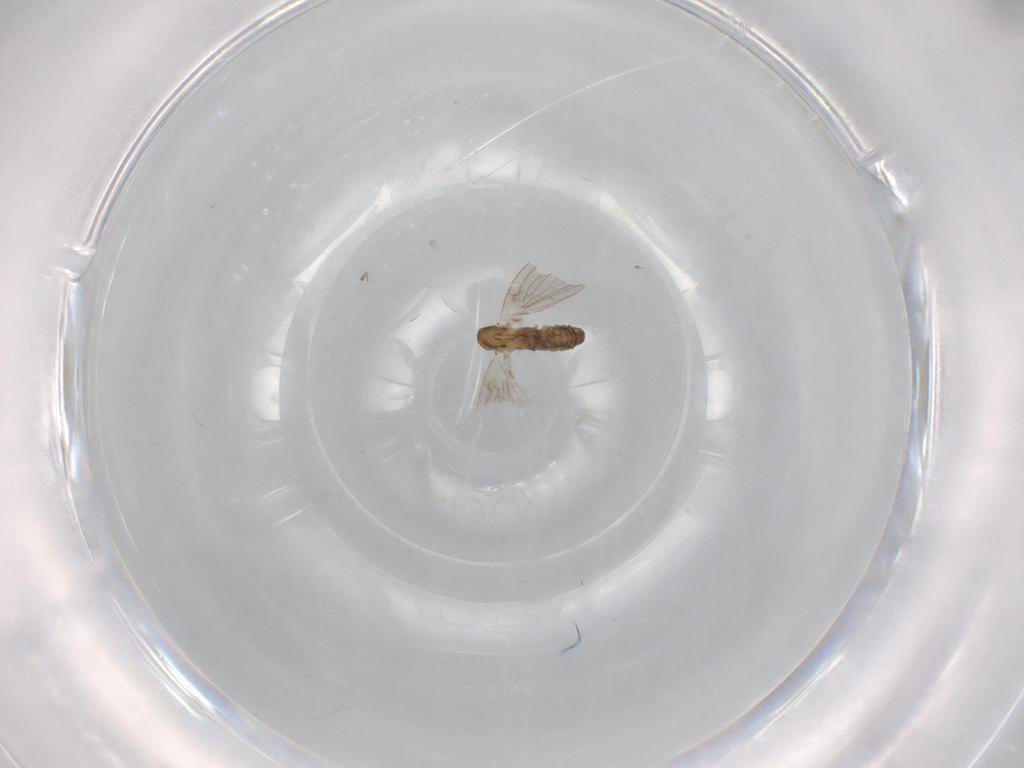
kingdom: Animalia
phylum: Arthropoda
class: Insecta
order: Diptera
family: Psychodidae
